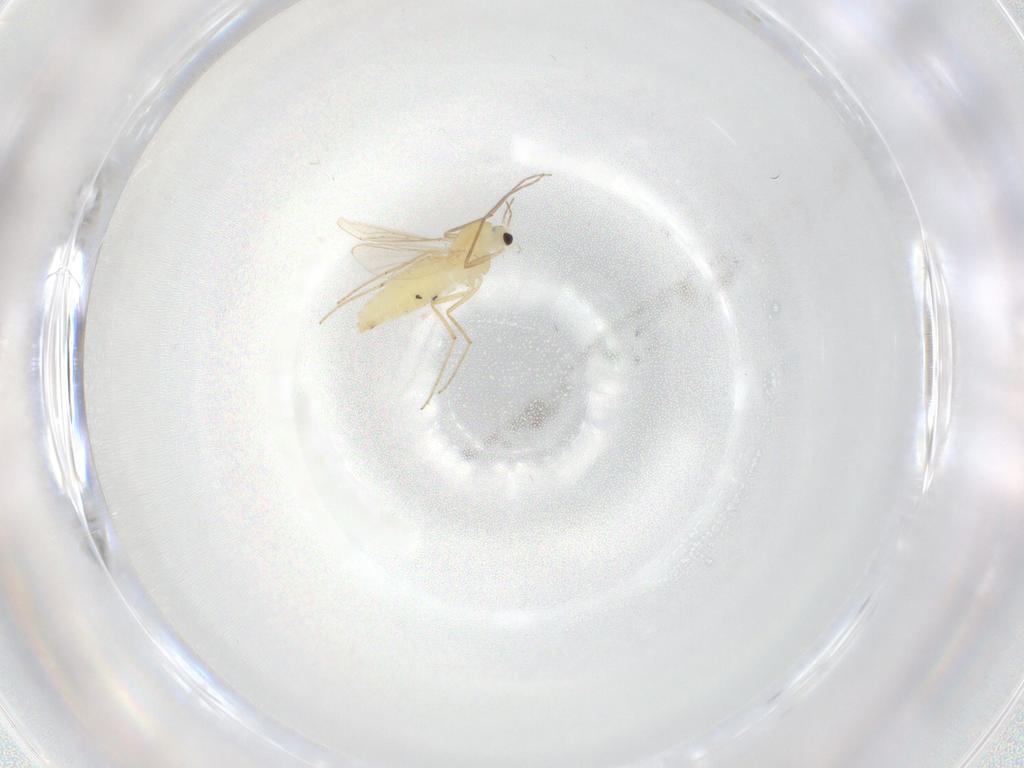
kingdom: Animalia
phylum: Arthropoda
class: Insecta
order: Diptera
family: Chironomidae
